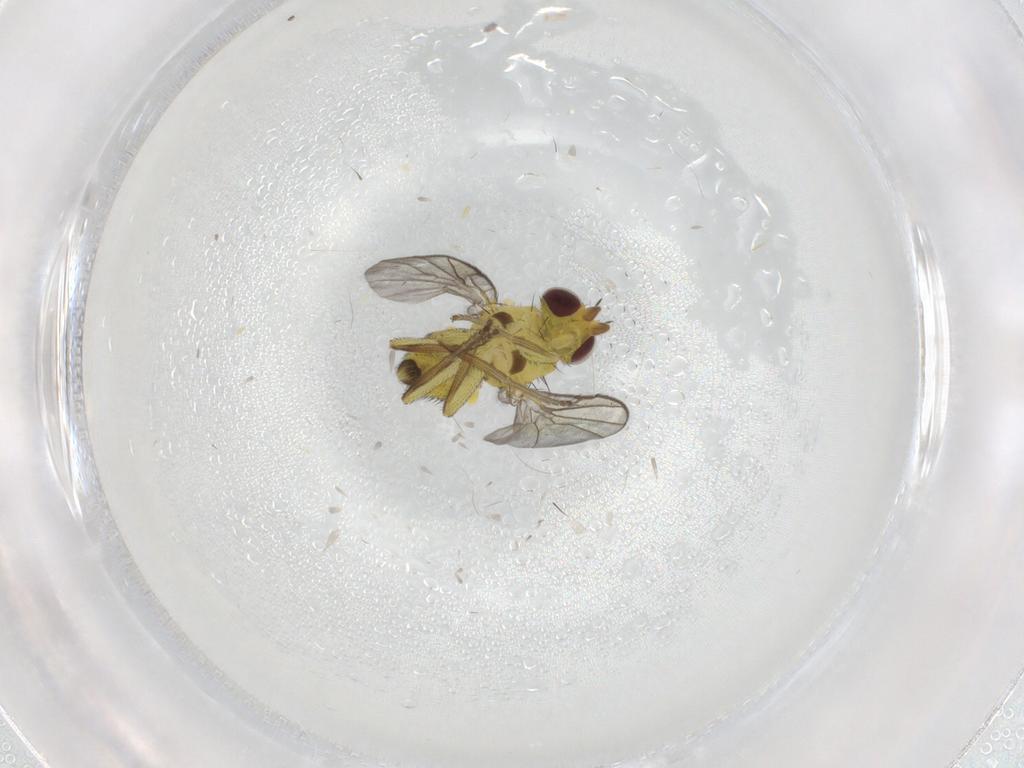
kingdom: Animalia
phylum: Arthropoda
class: Insecta
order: Diptera
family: Agromyzidae
